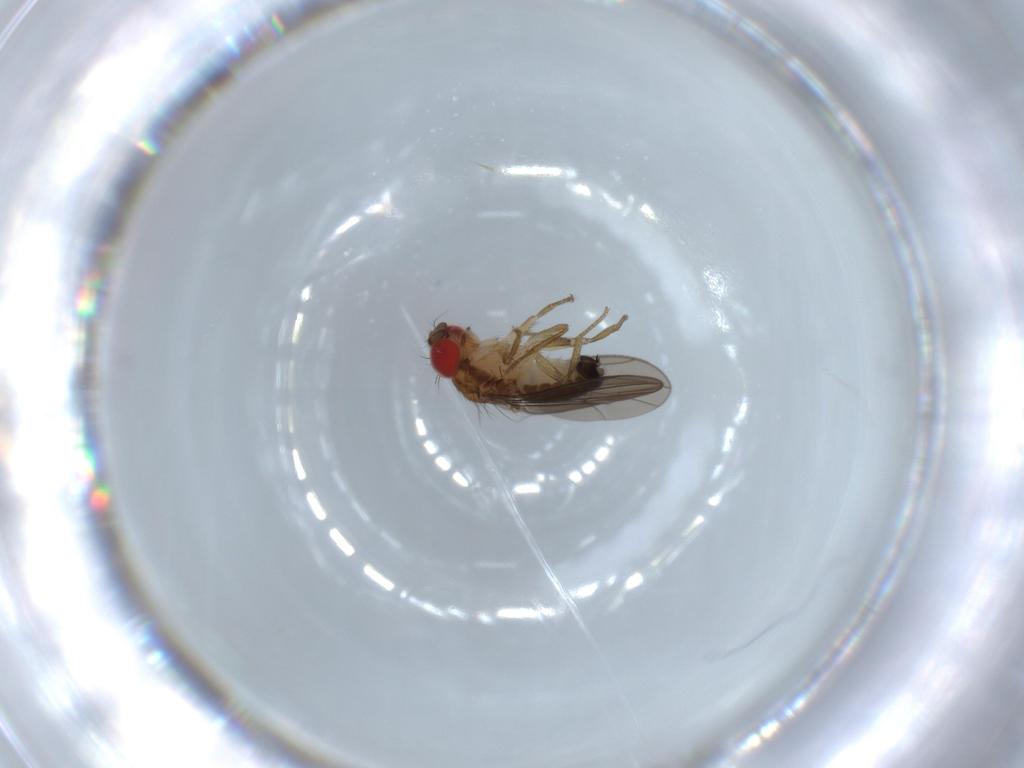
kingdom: Animalia
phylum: Arthropoda
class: Insecta
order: Diptera
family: Drosophilidae
